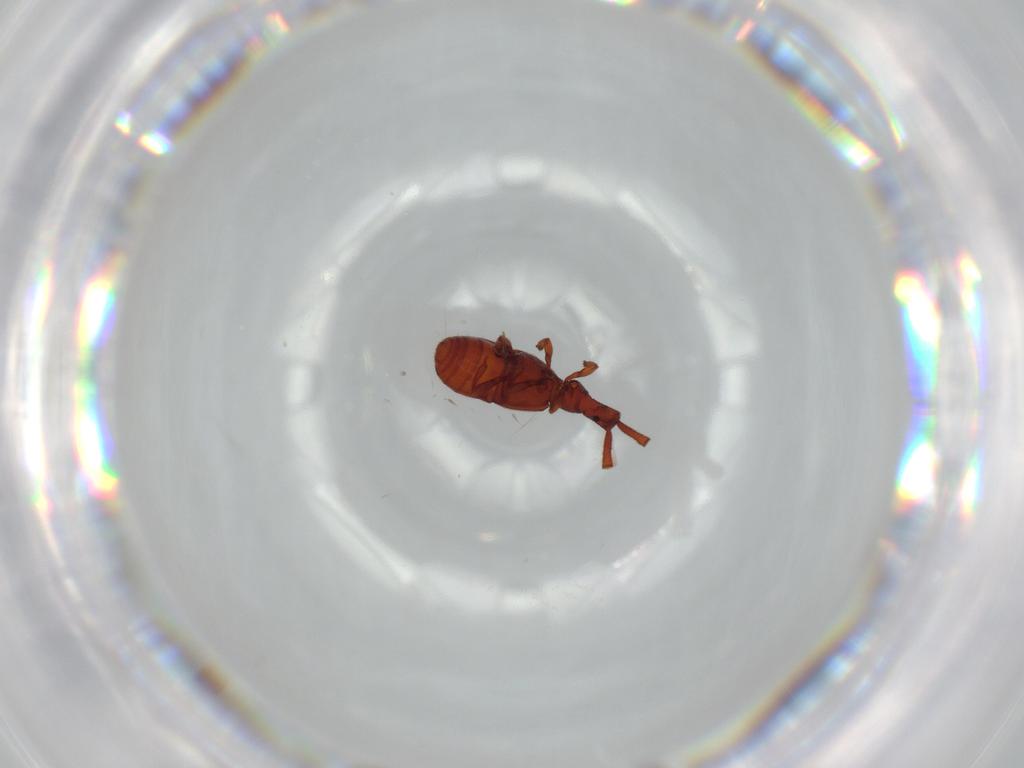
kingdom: Animalia
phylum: Arthropoda
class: Insecta
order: Coleoptera
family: Staphylinidae
